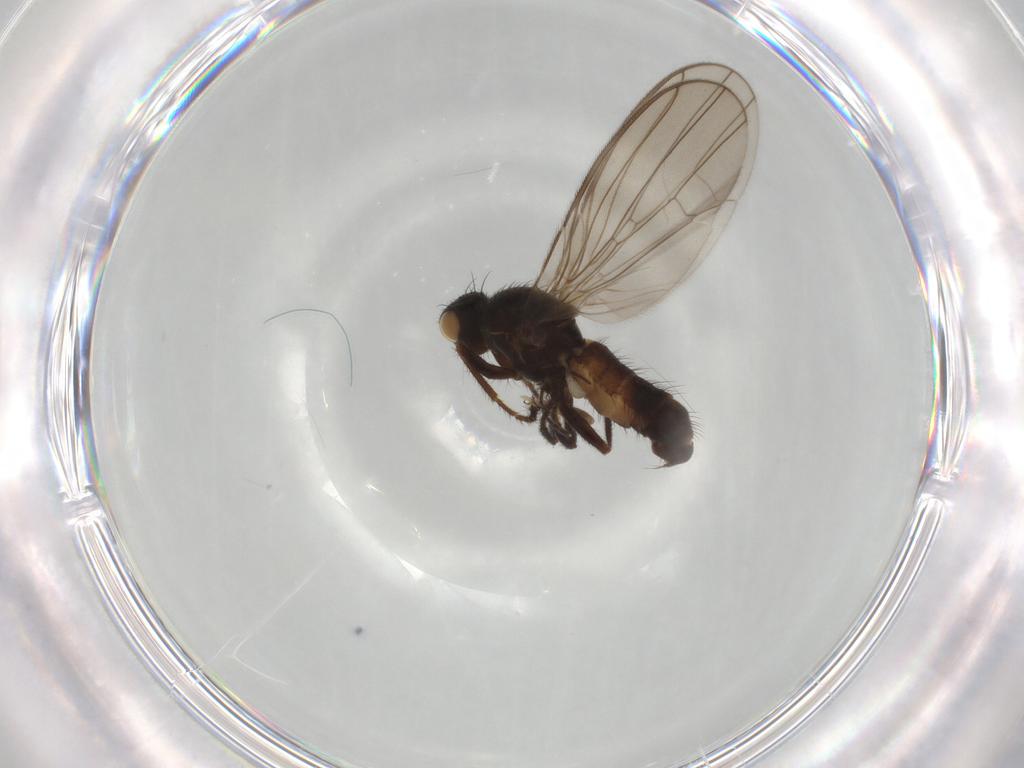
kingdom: Animalia
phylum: Arthropoda
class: Insecta
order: Diptera
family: Heleomyzidae
